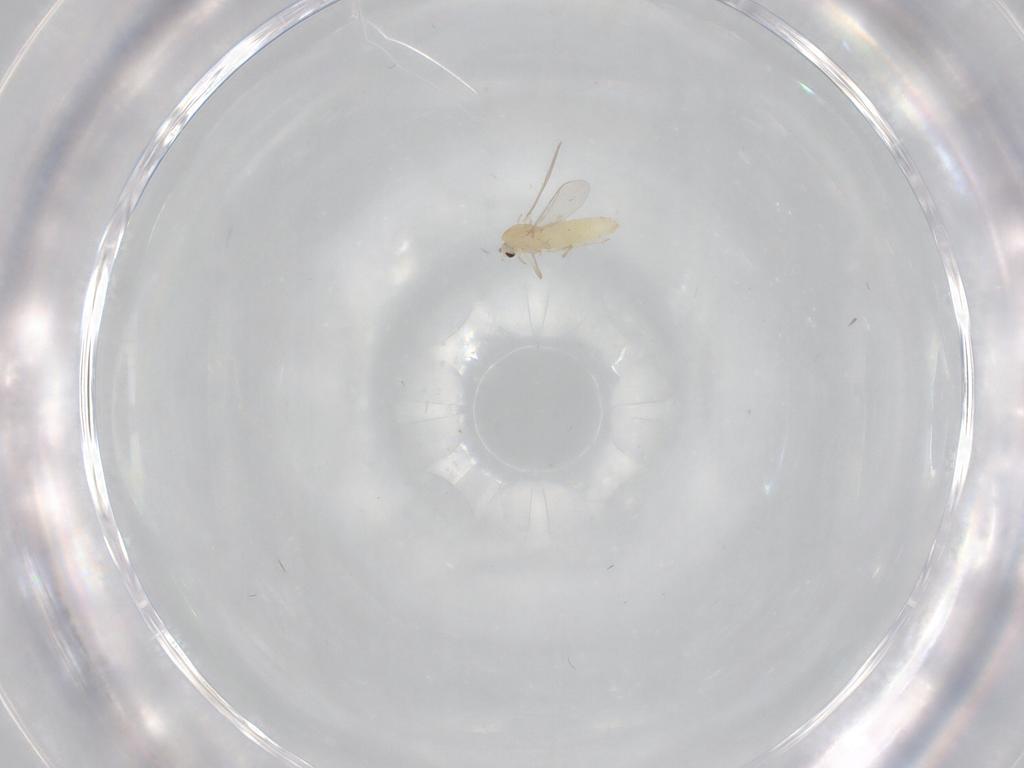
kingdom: Animalia
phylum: Arthropoda
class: Insecta
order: Diptera
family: Chironomidae
